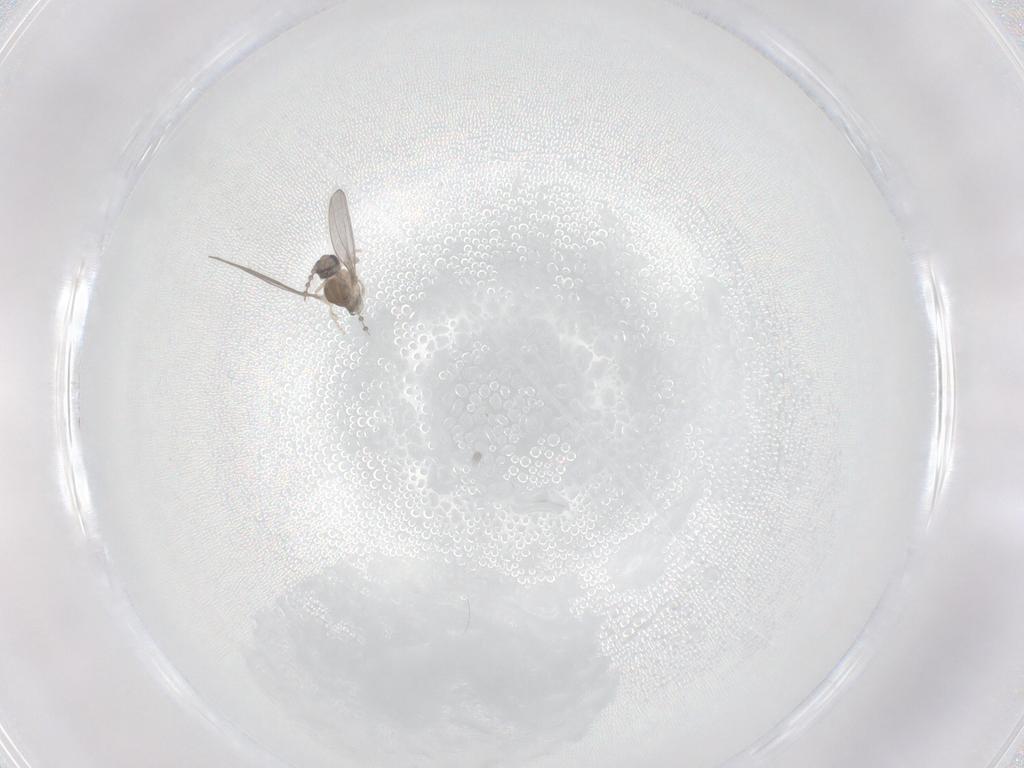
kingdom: Animalia
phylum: Arthropoda
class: Insecta
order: Diptera
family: Cecidomyiidae
